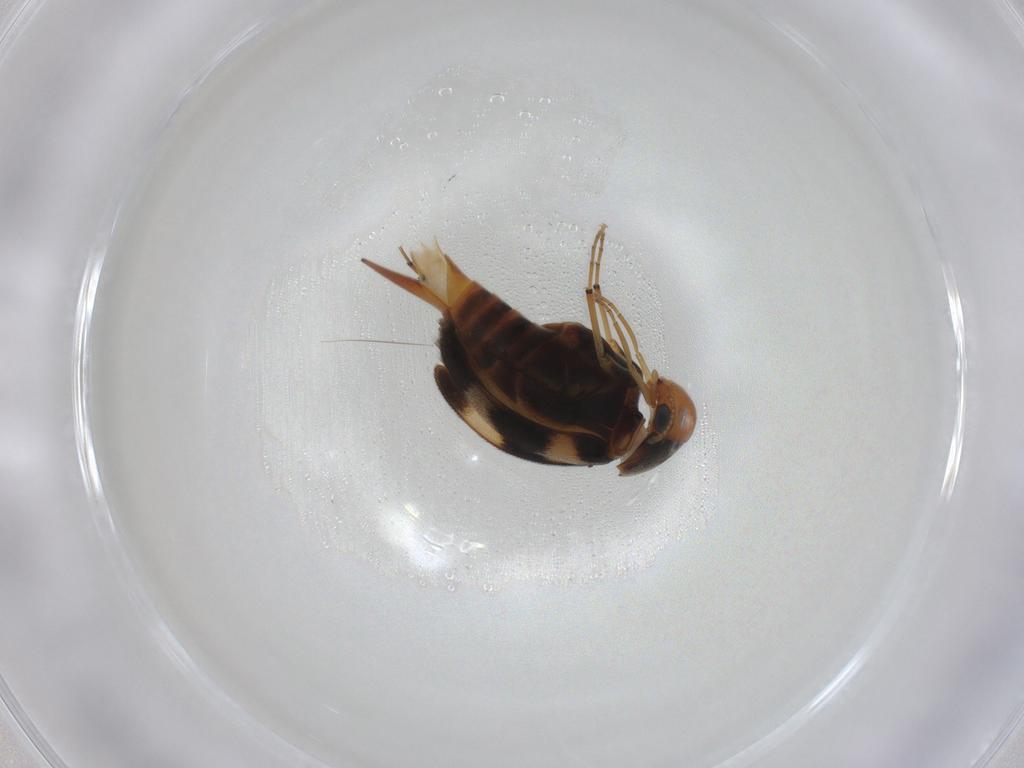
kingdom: Animalia
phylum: Arthropoda
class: Insecta
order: Coleoptera
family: Mordellidae
